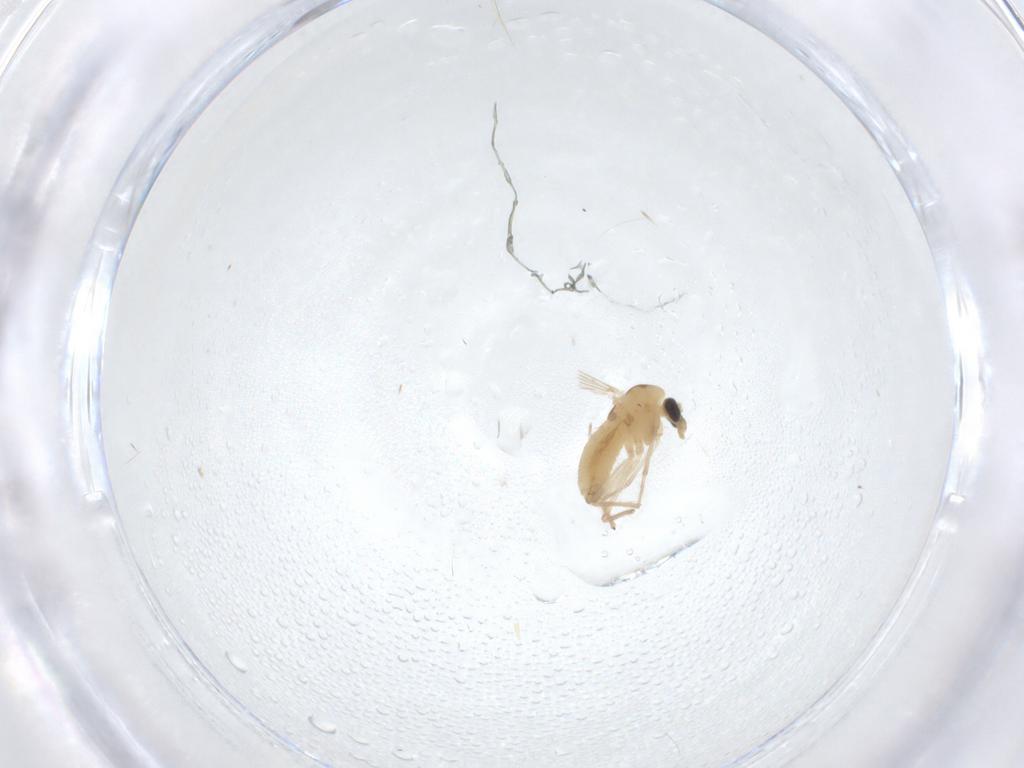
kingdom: Animalia
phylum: Arthropoda
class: Insecta
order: Diptera
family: Chironomidae
